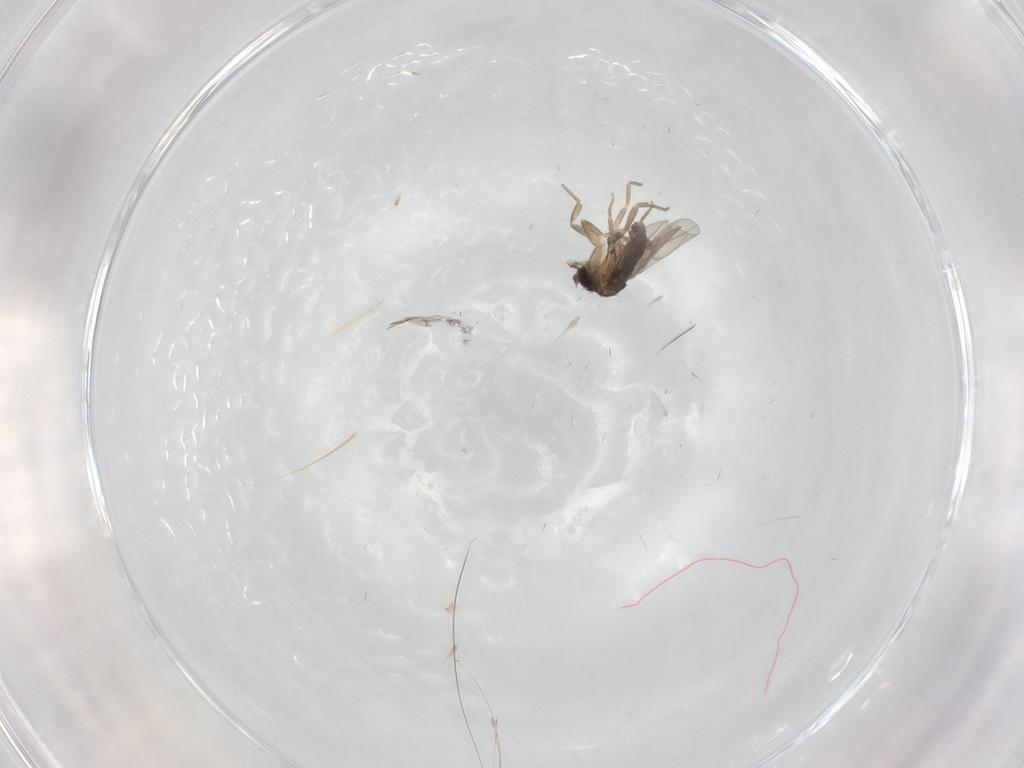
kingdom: Animalia
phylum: Arthropoda
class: Insecta
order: Diptera
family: Phoridae
